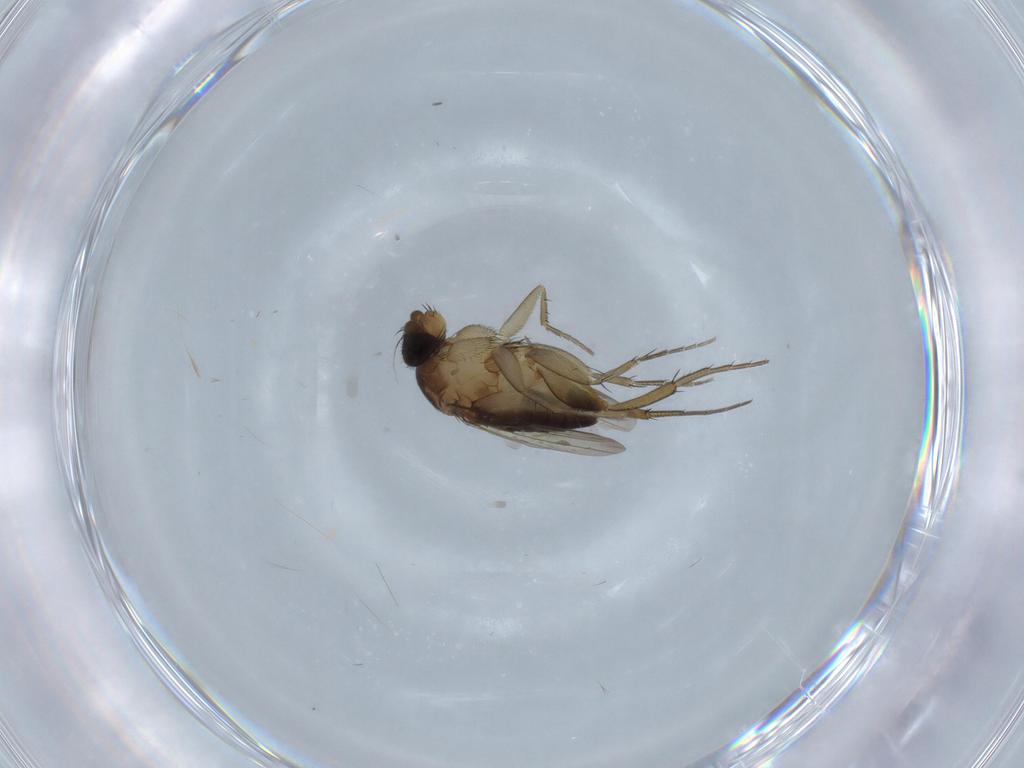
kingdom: Animalia
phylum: Arthropoda
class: Insecta
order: Diptera
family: Phoridae
